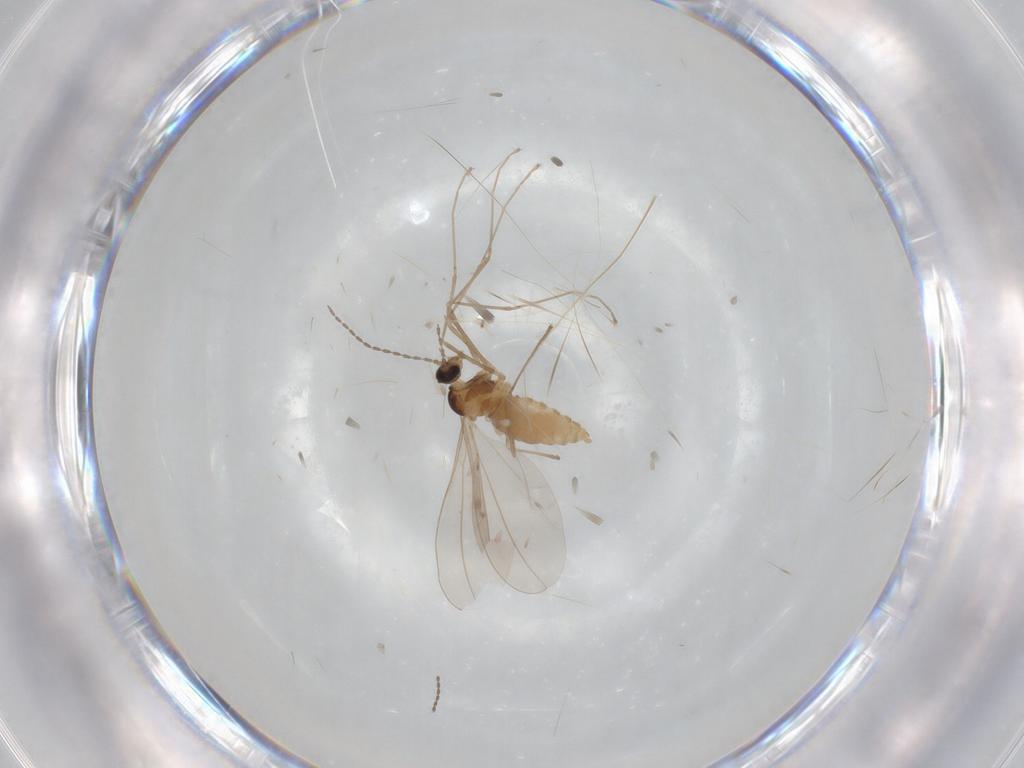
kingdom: Animalia
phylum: Arthropoda
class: Insecta
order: Diptera
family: Cecidomyiidae
